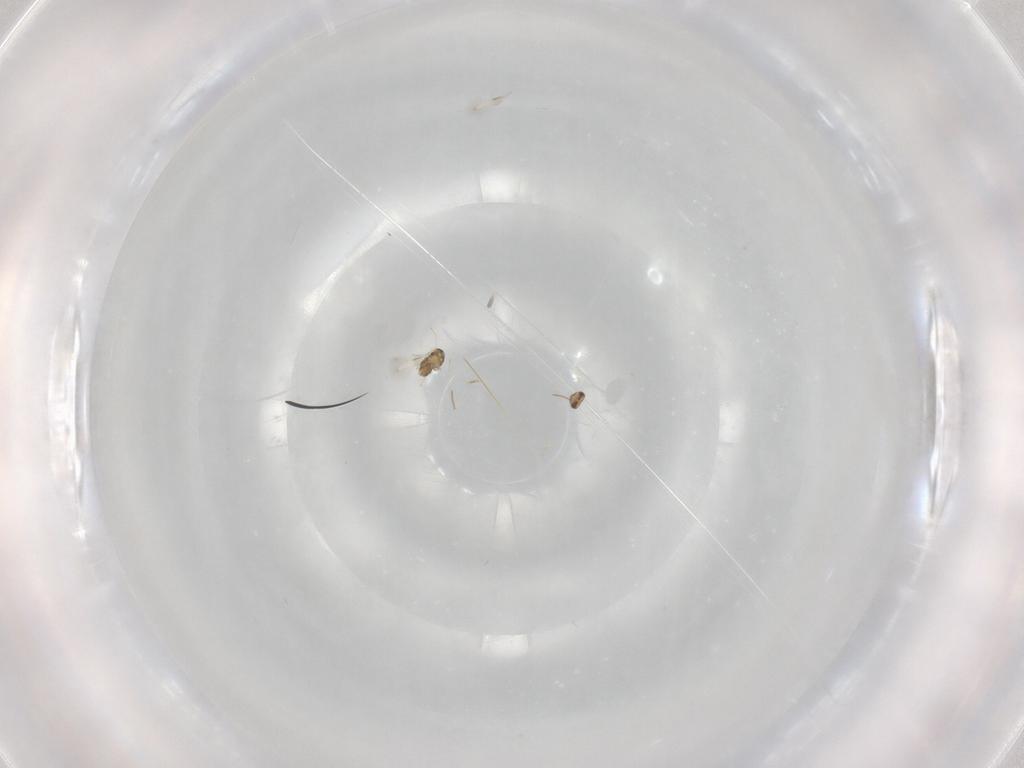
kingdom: Animalia
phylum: Arthropoda
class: Insecta
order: Hymenoptera
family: Aphelinidae
